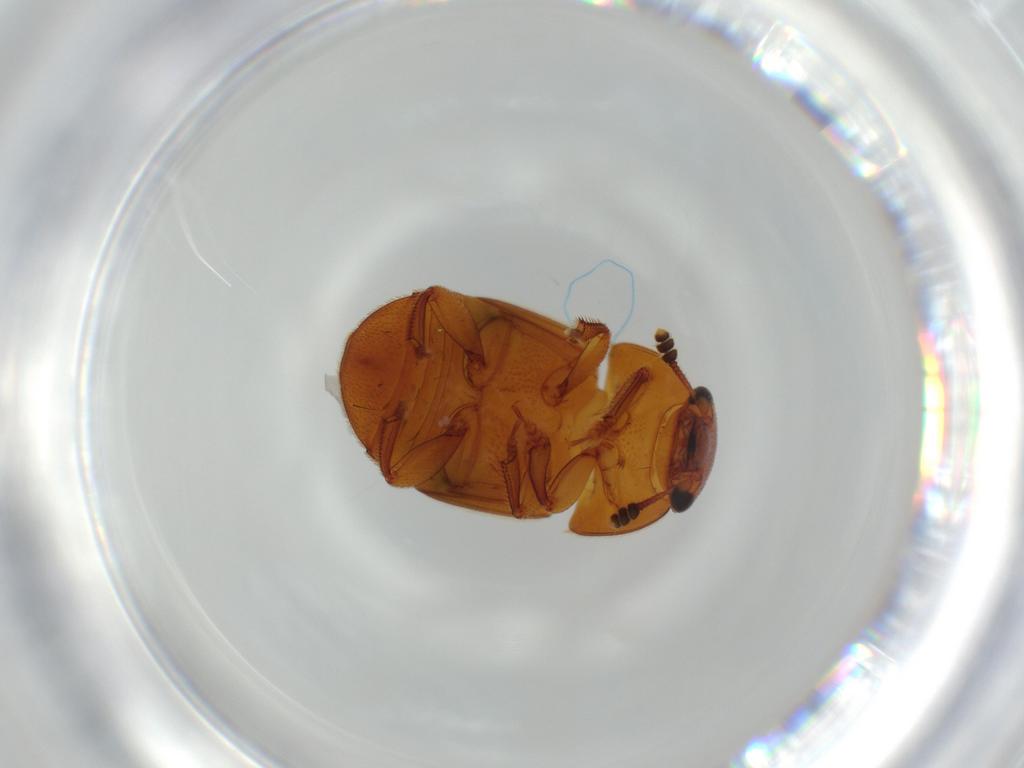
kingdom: Animalia
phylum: Arthropoda
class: Insecta
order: Coleoptera
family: Nitidulidae
